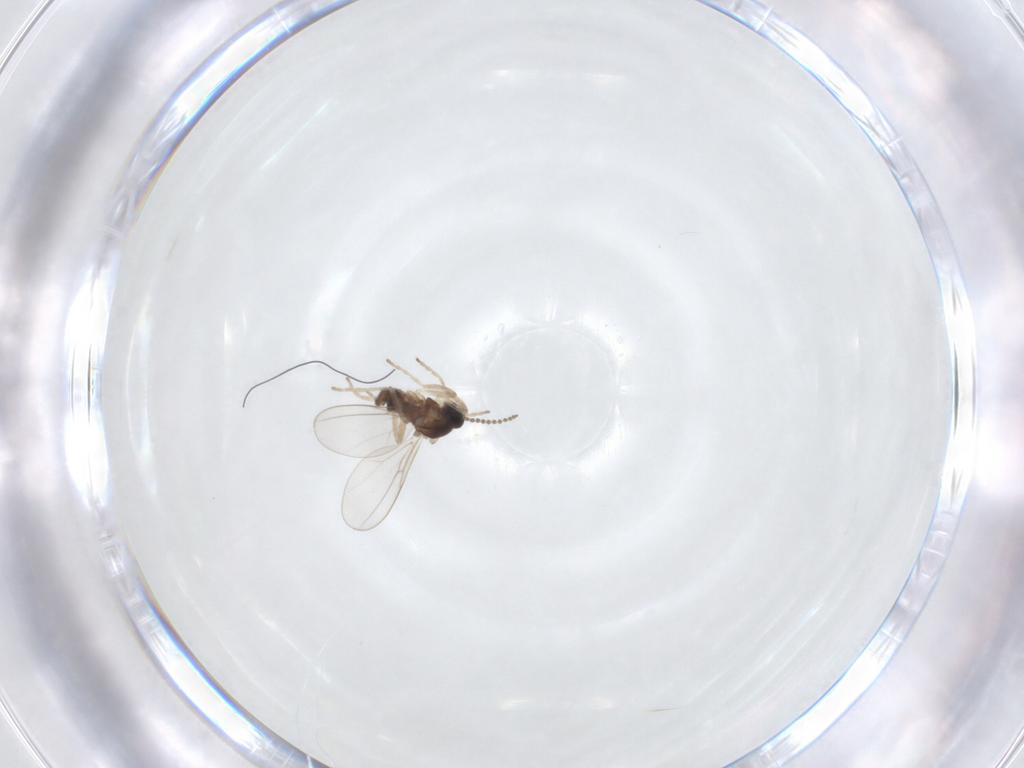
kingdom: Animalia
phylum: Arthropoda
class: Insecta
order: Diptera
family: Cecidomyiidae
